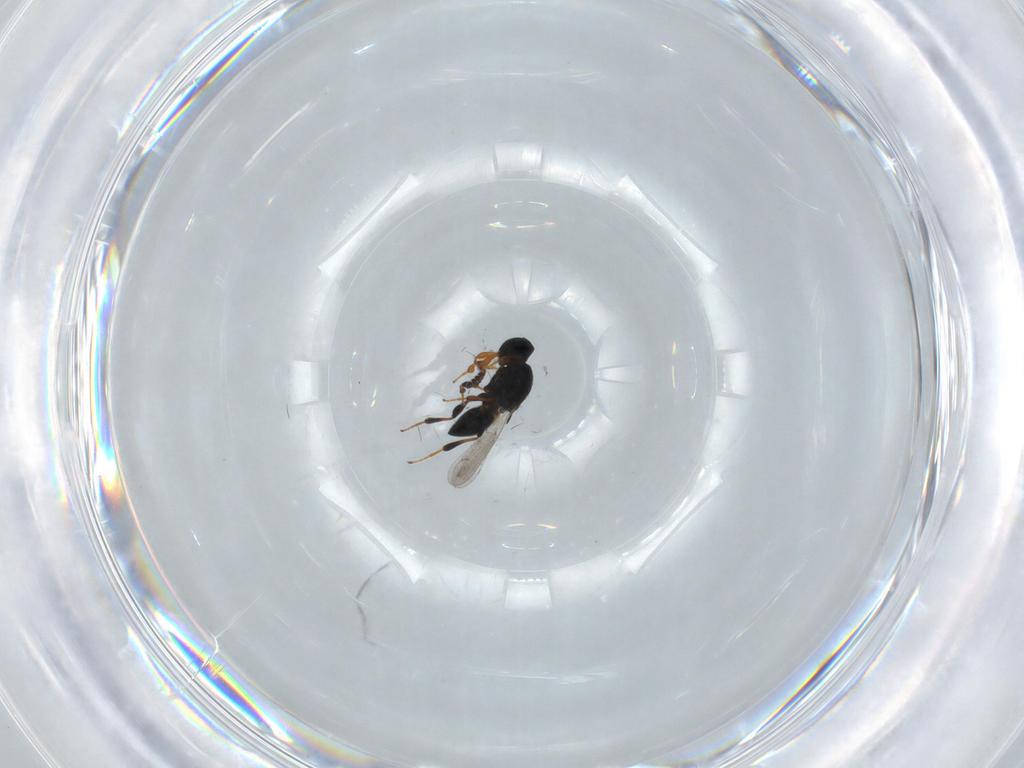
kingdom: Animalia
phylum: Arthropoda
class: Insecta
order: Hymenoptera
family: Platygastridae
